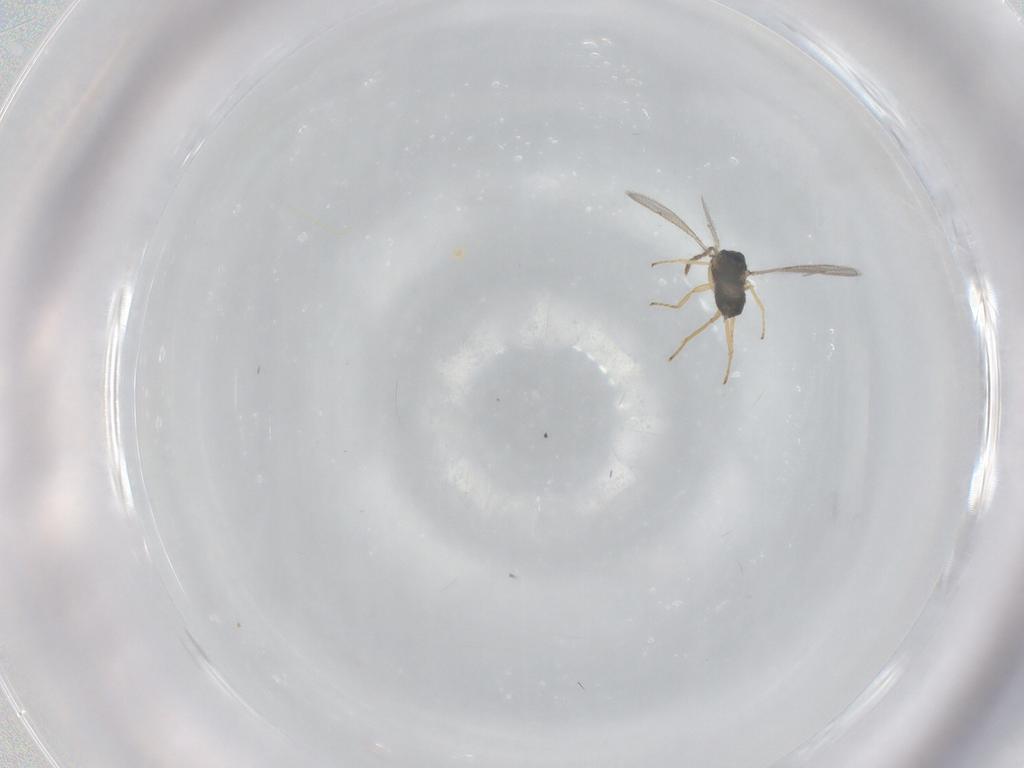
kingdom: Animalia
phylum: Arthropoda
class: Insecta
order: Hymenoptera
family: Eulophidae
